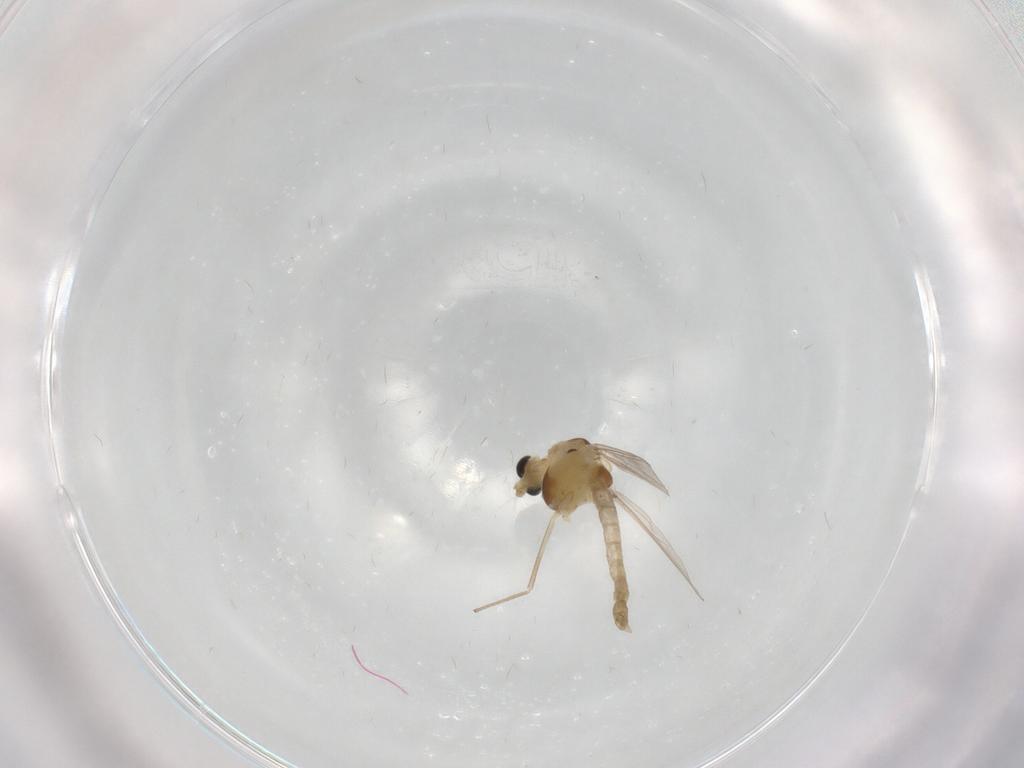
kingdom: Animalia
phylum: Arthropoda
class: Insecta
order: Diptera
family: Chironomidae
